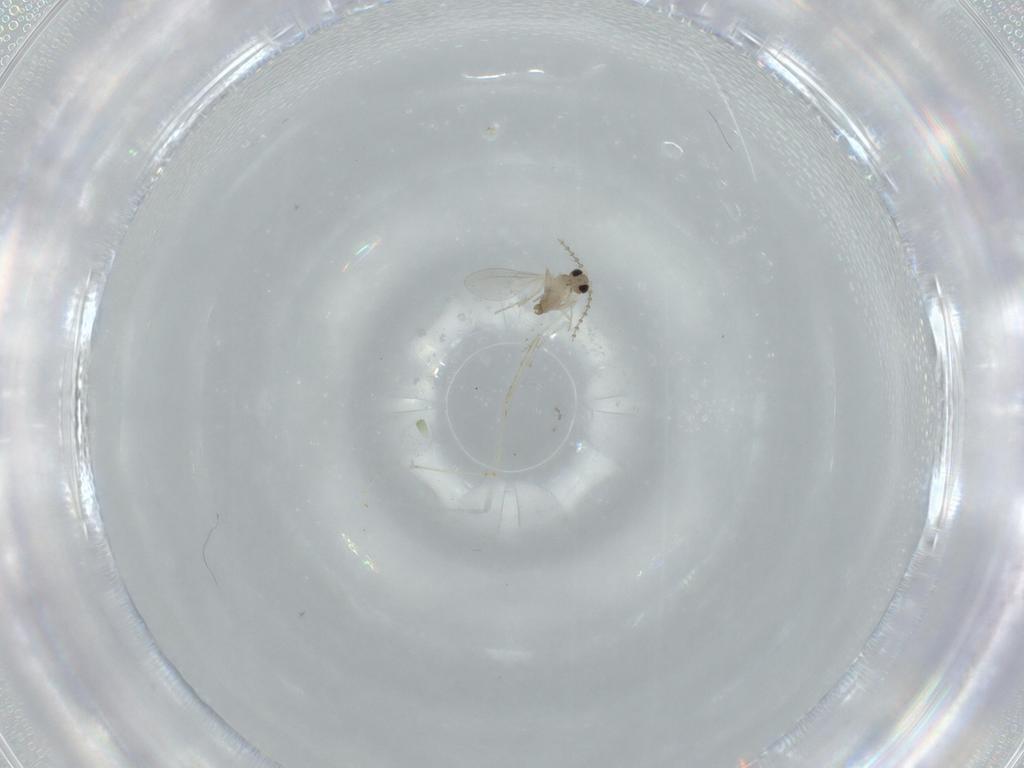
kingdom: Animalia
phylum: Arthropoda
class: Insecta
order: Diptera
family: Cecidomyiidae
